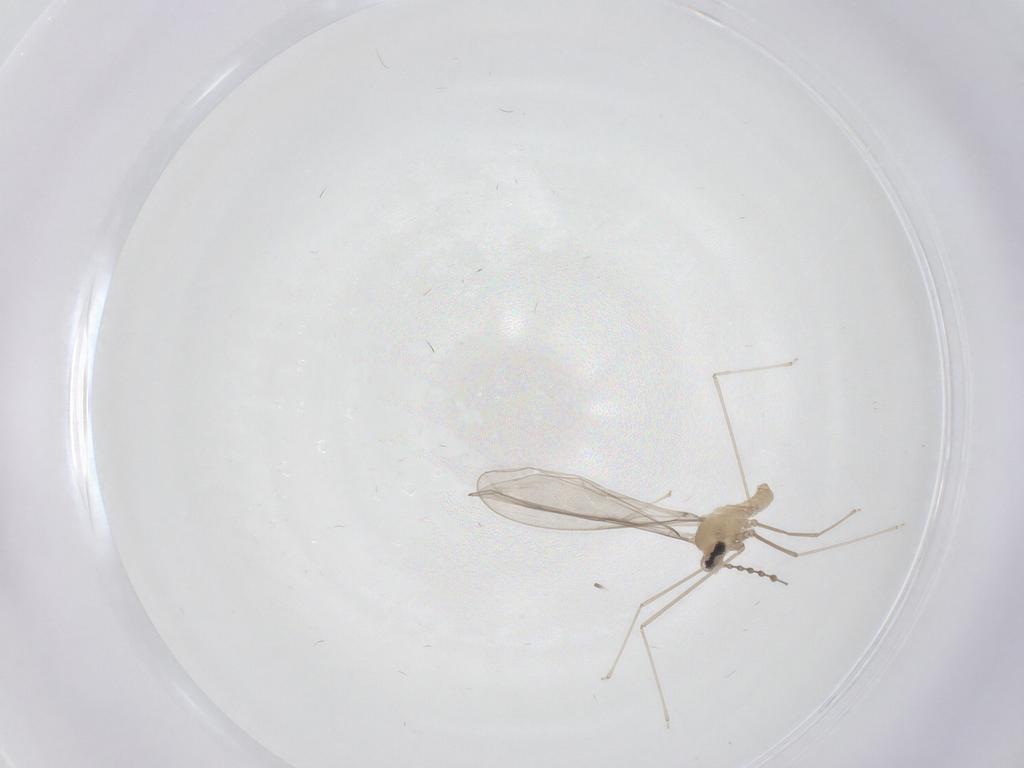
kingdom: Animalia
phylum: Arthropoda
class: Insecta
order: Diptera
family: Cecidomyiidae
